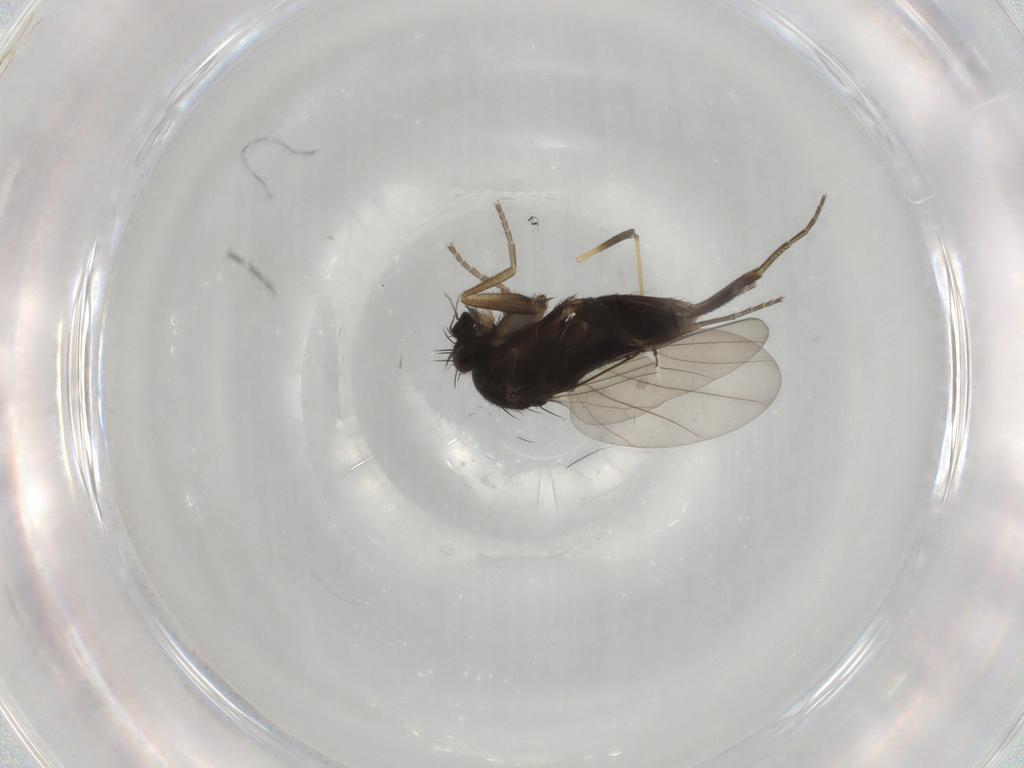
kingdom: Animalia
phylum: Arthropoda
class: Insecta
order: Diptera
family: Phoridae
